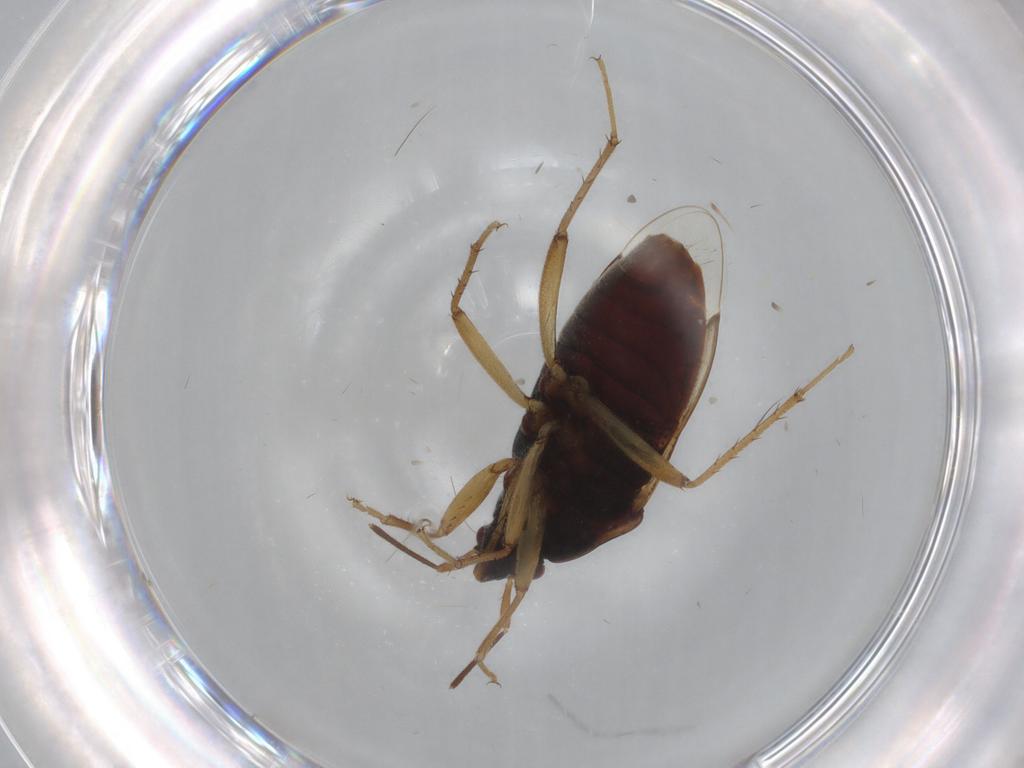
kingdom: Animalia
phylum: Arthropoda
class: Insecta
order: Hemiptera
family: Rhyparochromidae
